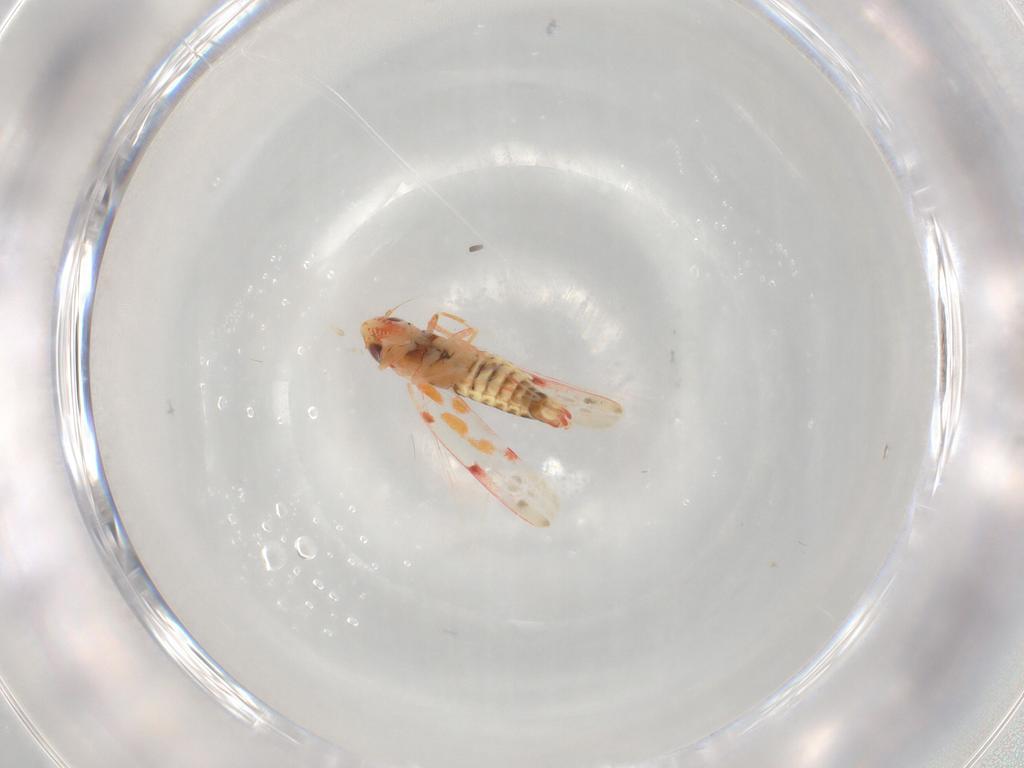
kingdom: Animalia
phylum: Arthropoda
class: Insecta
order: Hemiptera
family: Cicadellidae
